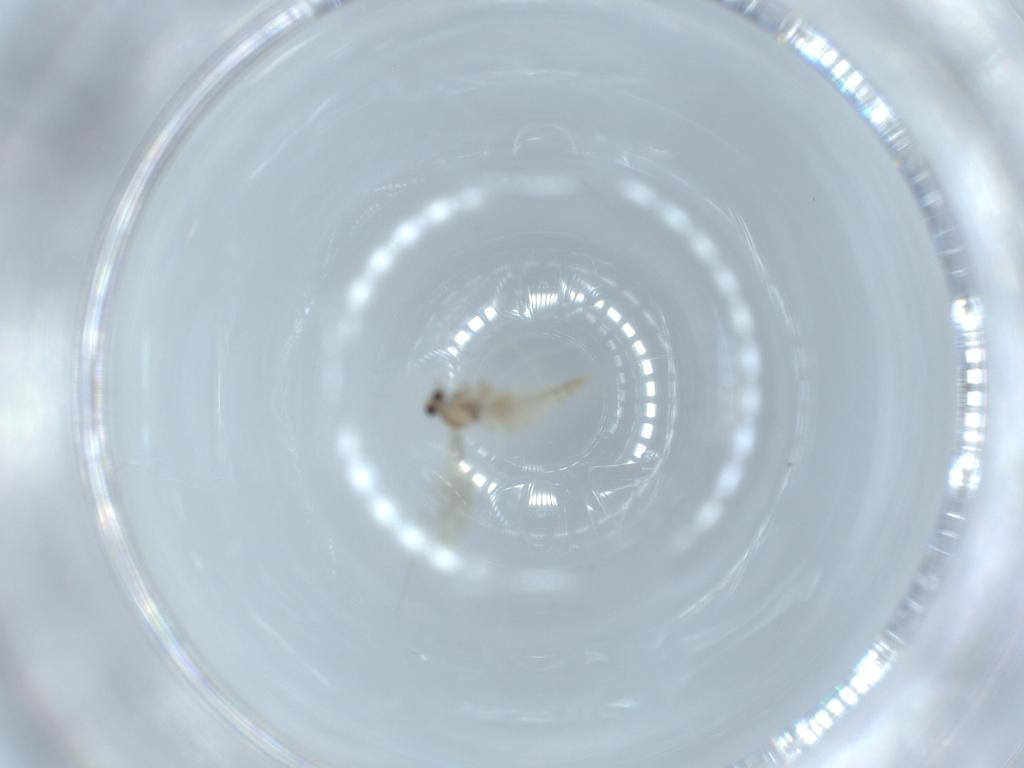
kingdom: Animalia
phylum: Arthropoda
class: Insecta
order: Diptera
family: Cecidomyiidae
